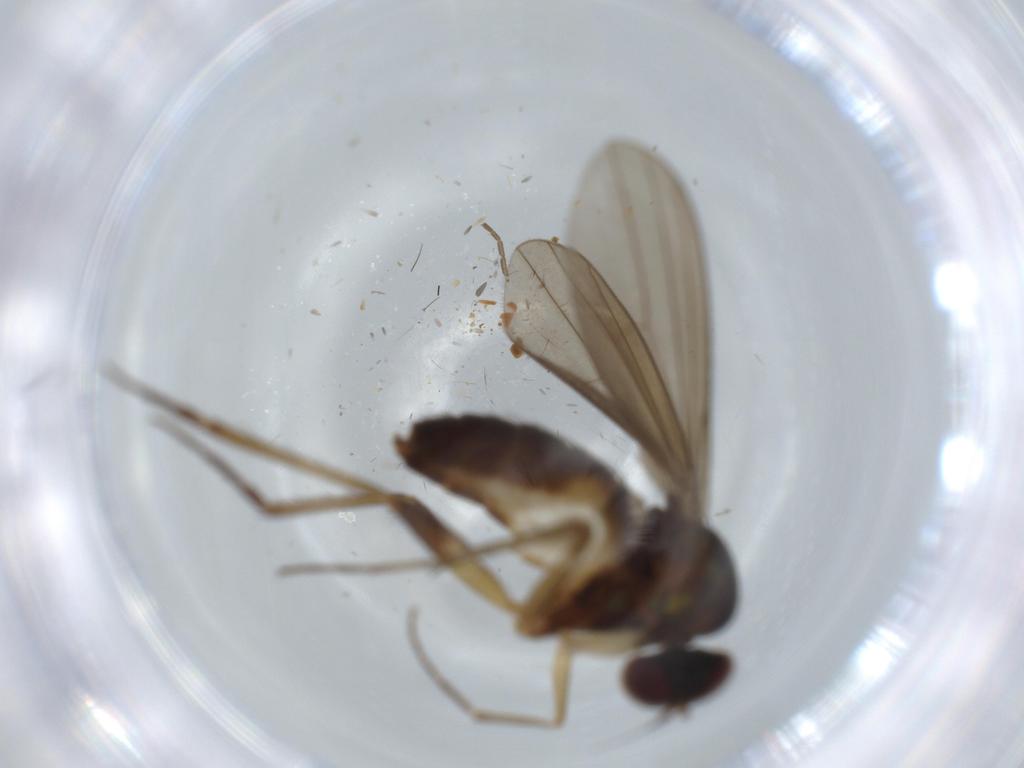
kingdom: Animalia
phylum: Arthropoda
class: Insecta
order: Diptera
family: Dolichopodidae
